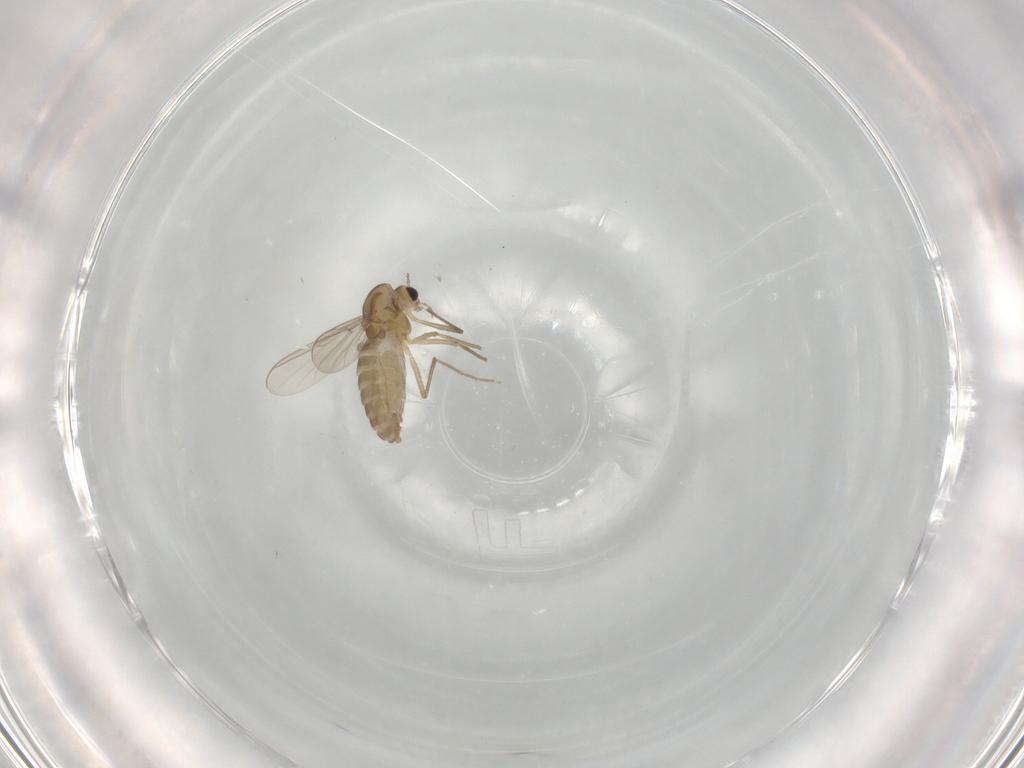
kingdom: Animalia
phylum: Arthropoda
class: Insecta
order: Diptera
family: Chironomidae
